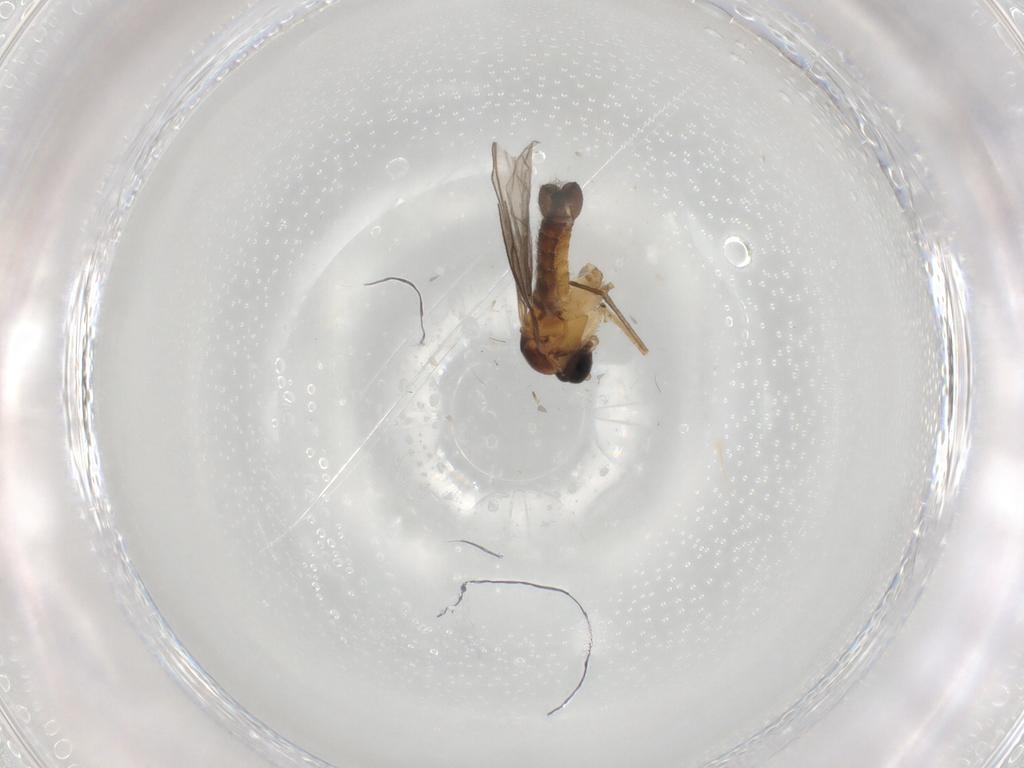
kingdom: Animalia
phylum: Arthropoda
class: Insecta
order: Diptera
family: Sciaridae
